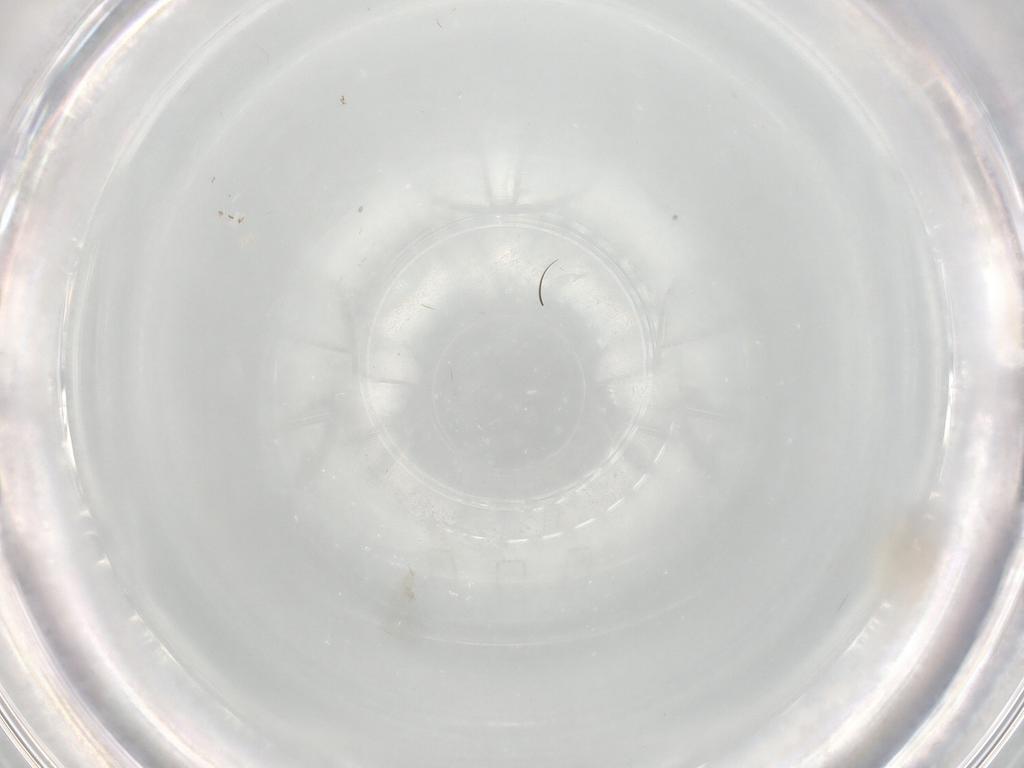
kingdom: Animalia
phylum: Arthropoda
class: Insecta
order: Diptera
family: Ceratopogonidae
